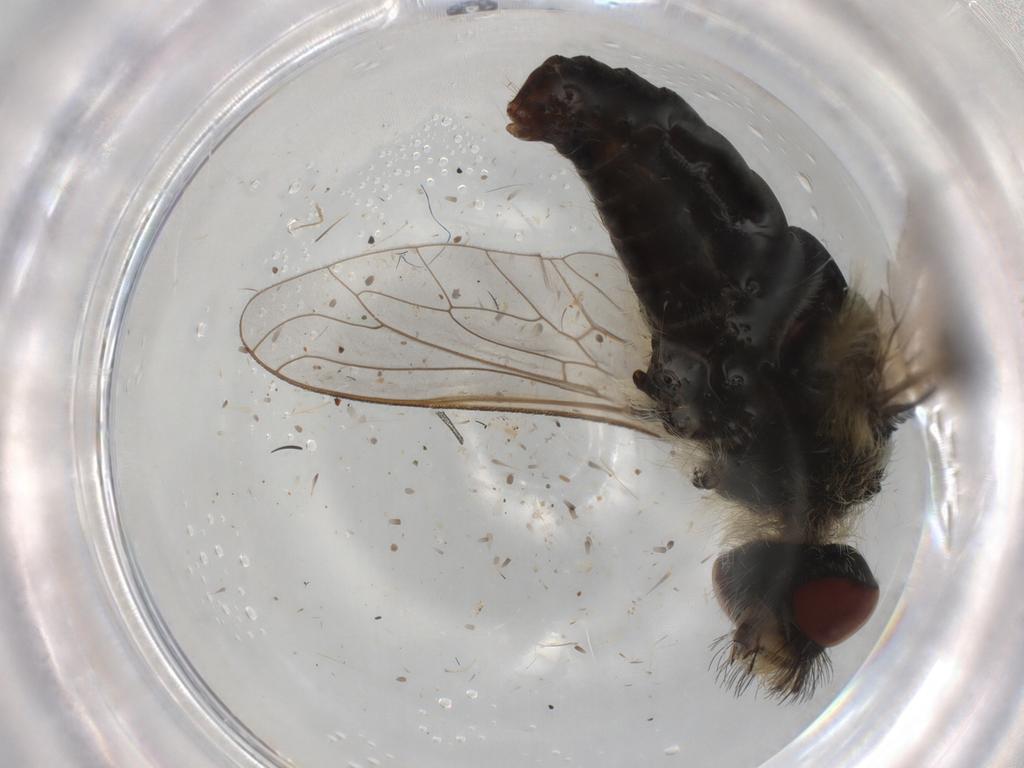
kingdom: Animalia
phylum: Arthropoda
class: Insecta
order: Diptera
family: Bombyliidae
